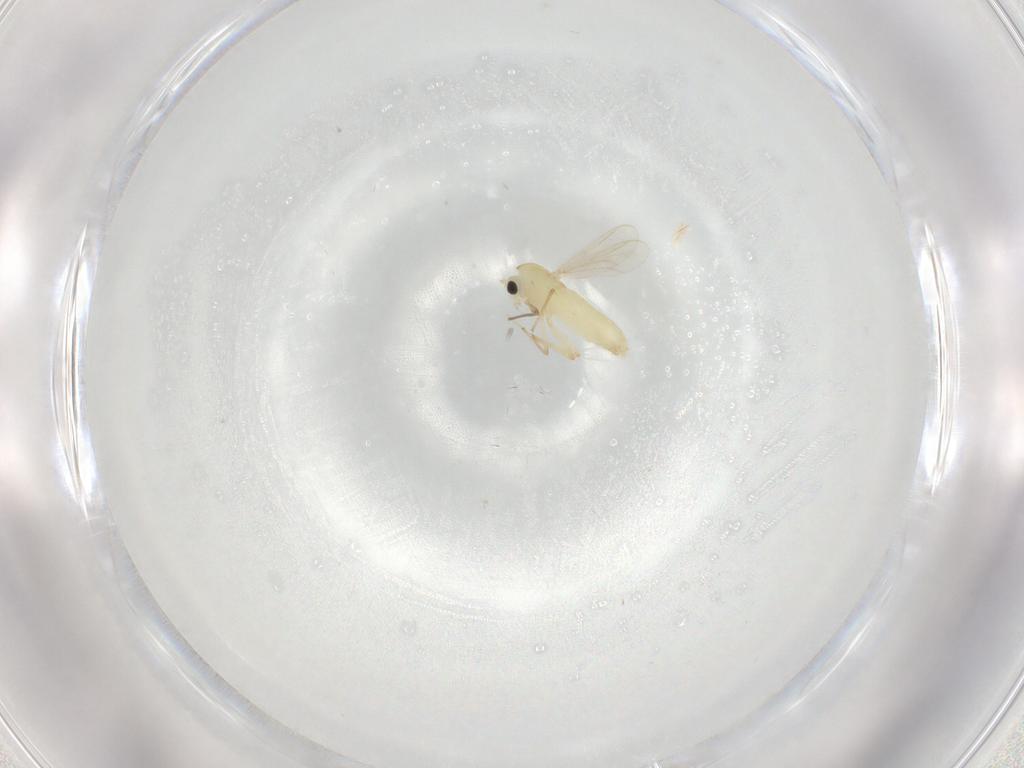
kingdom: Animalia
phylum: Arthropoda
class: Insecta
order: Diptera
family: Chironomidae
